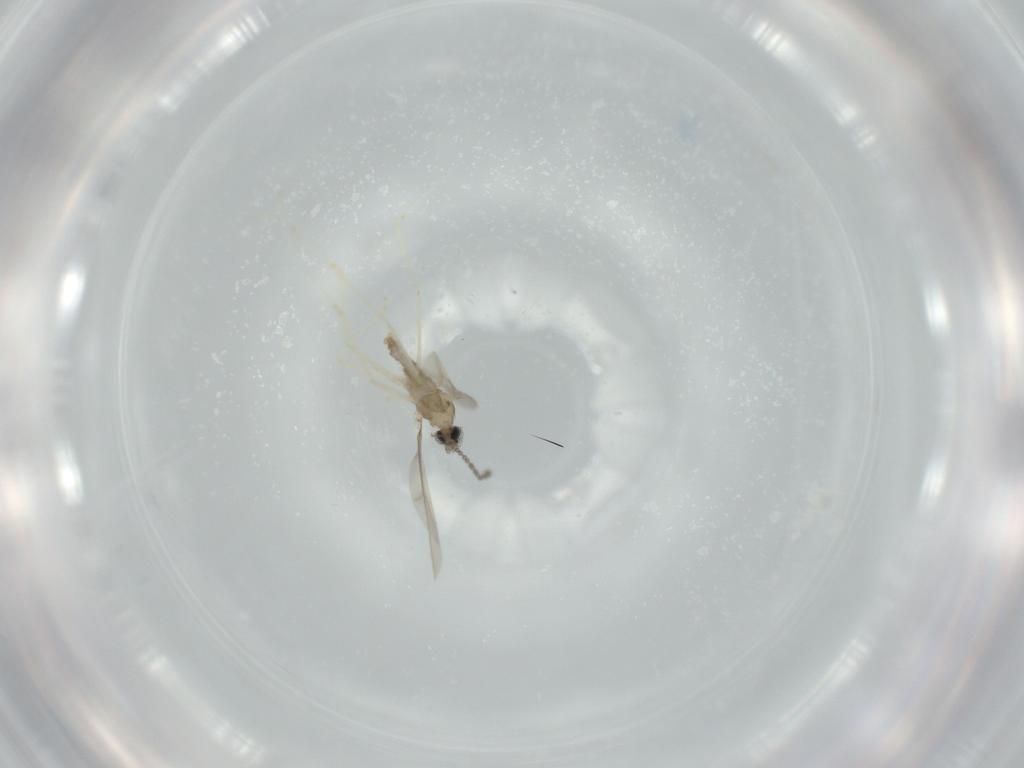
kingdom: Animalia
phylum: Arthropoda
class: Insecta
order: Diptera
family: Cecidomyiidae
